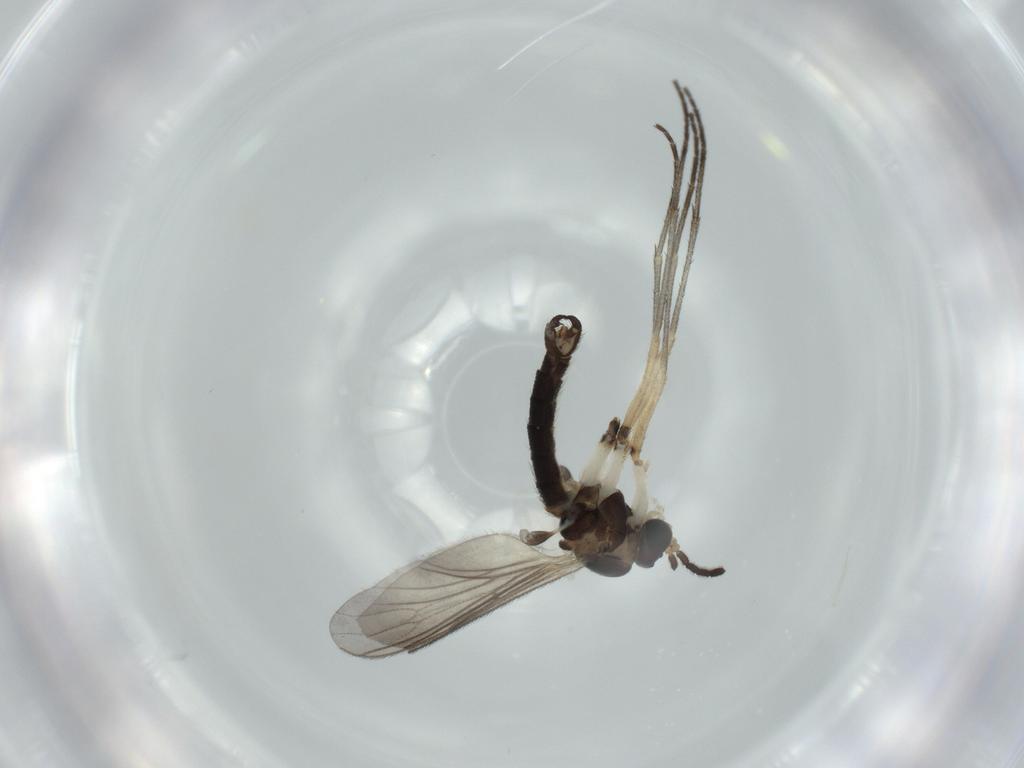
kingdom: Animalia
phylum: Arthropoda
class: Insecta
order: Diptera
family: Sciaridae
